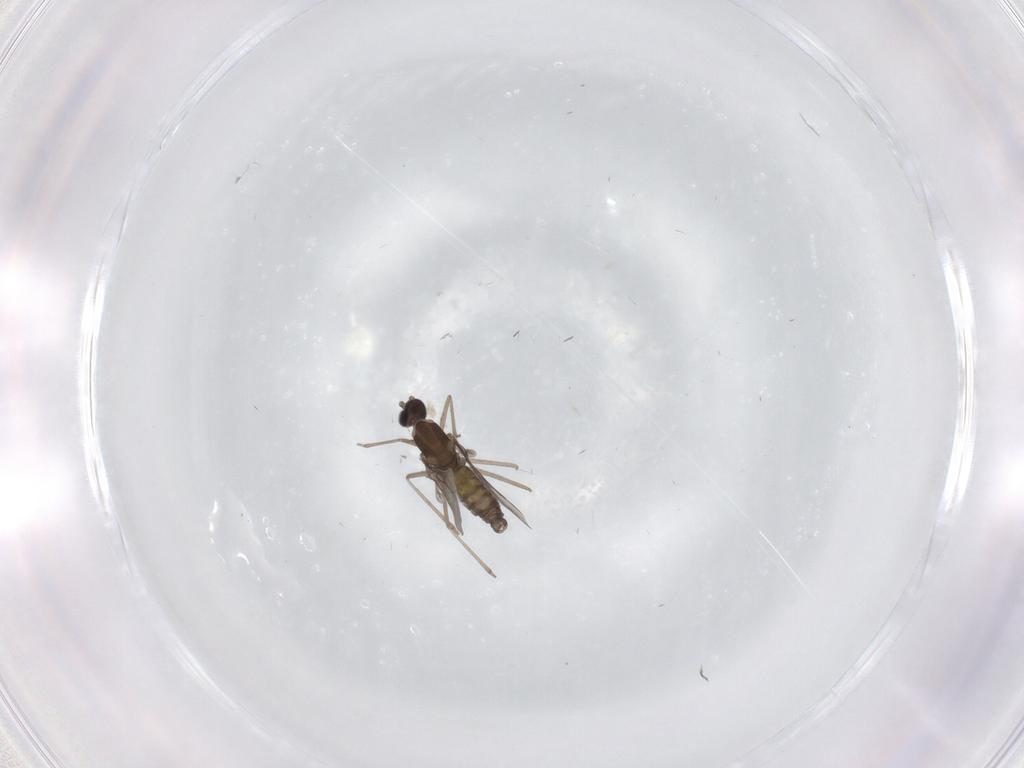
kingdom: Animalia
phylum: Arthropoda
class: Insecta
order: Diptera
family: Cecidomyiidae
